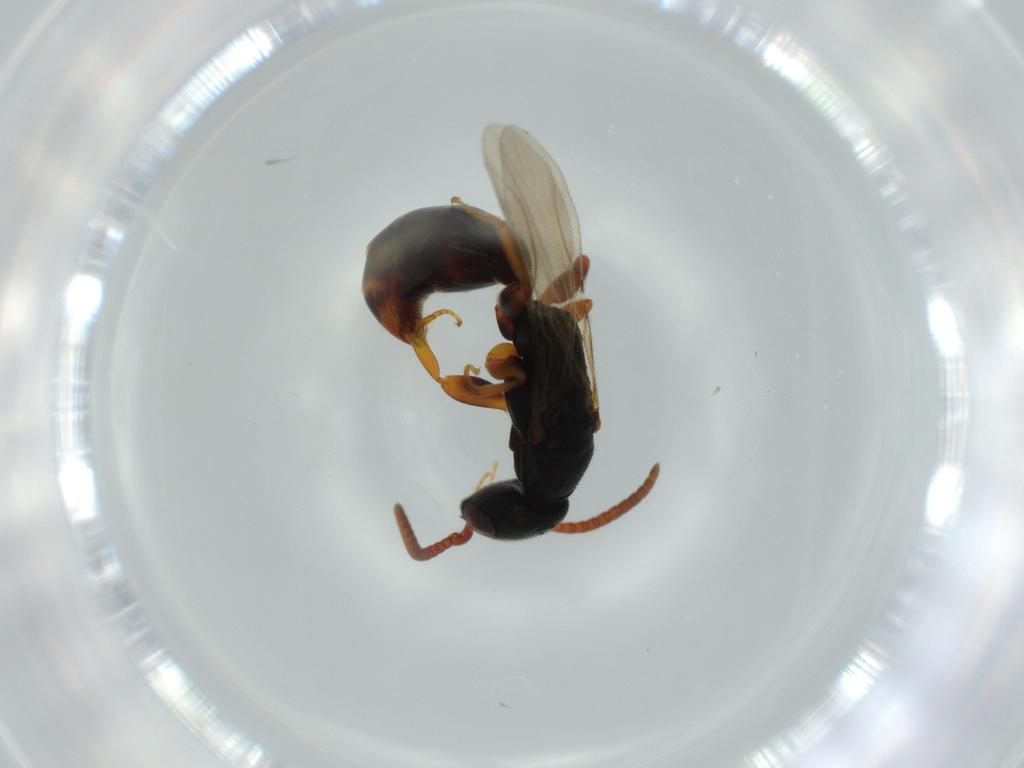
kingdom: Animalia
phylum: Arthropoda
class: Insecta
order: Hymenoptera
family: Bethylidae
